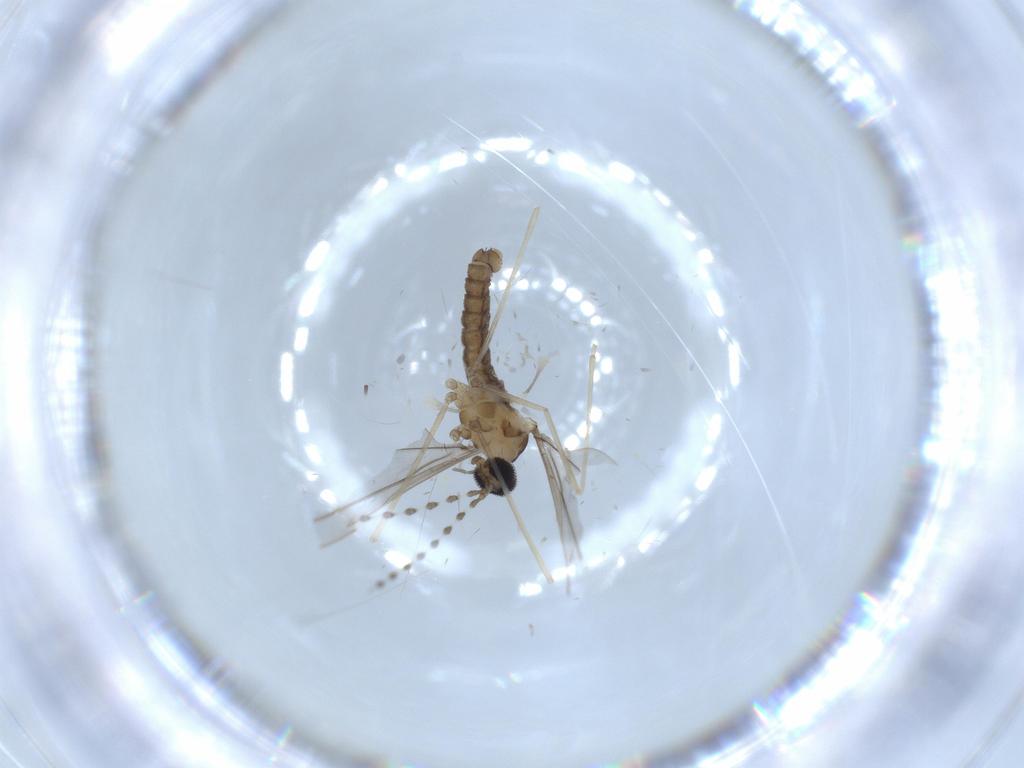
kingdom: Animalia
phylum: Arthropoda
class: Insecta
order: Diptera
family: Cecidomyiidae
